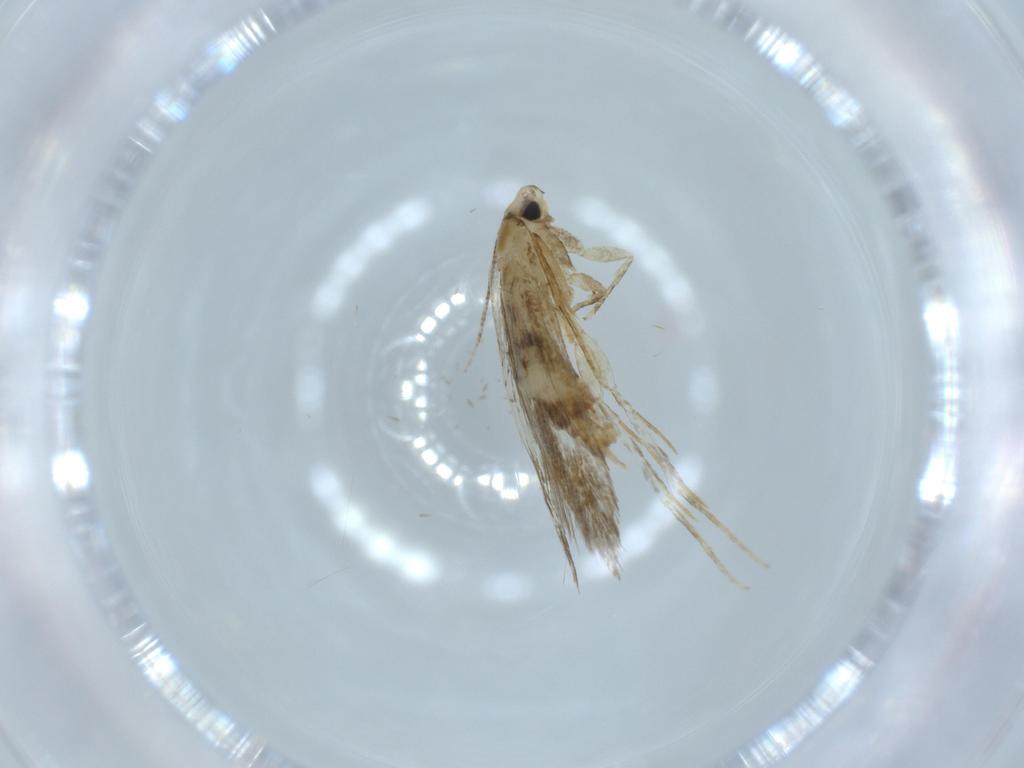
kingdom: Animalia
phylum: Arthropoda
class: Insecta
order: Lepidoptera
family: Tineidae
